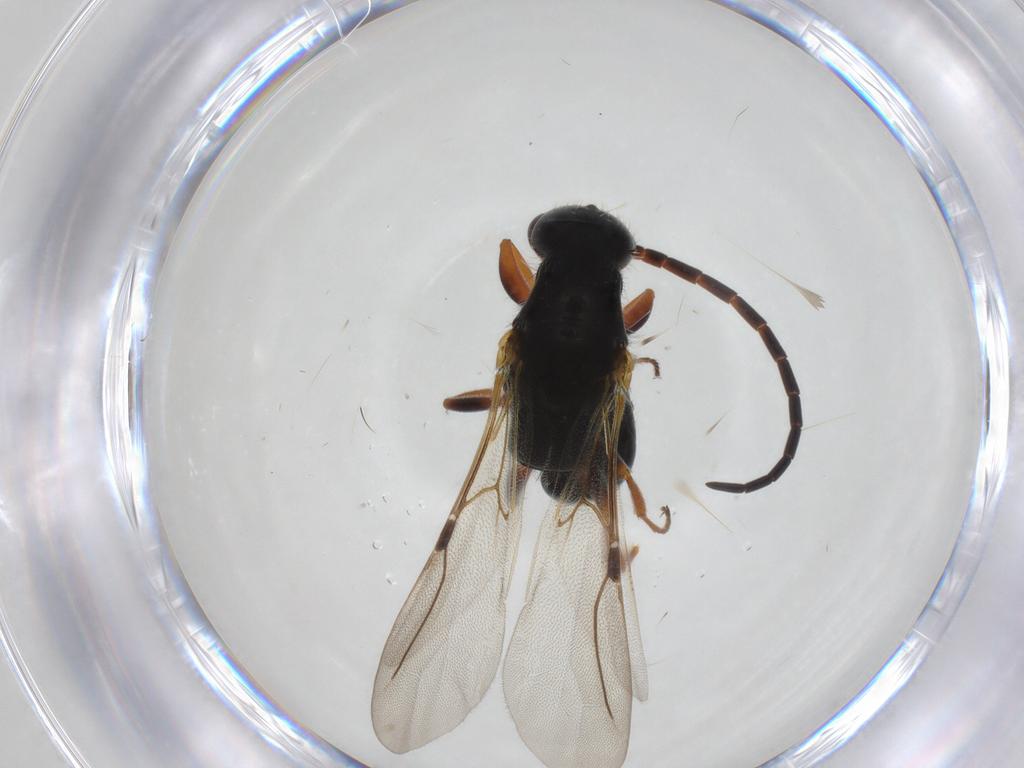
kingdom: Animalia
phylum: Arthropoda
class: Insecta
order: Hymenoptera
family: Bethylidae
